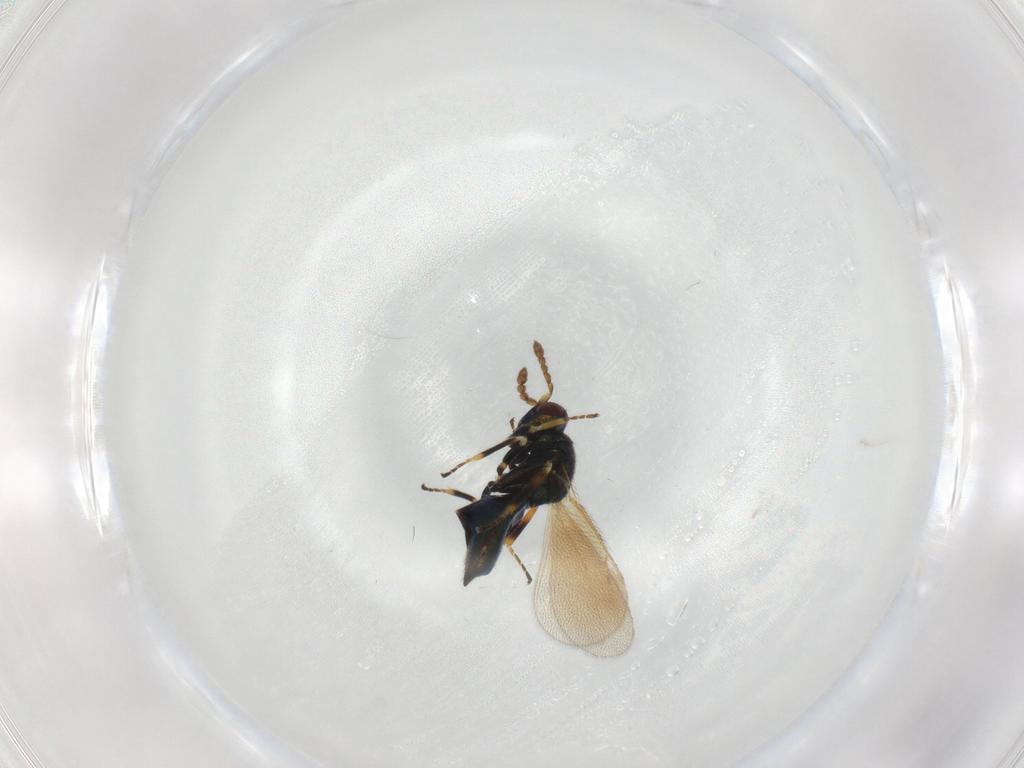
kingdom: Animalia
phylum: Arthropoda
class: Insecta
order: Hymenoptera
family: Eulophidae
